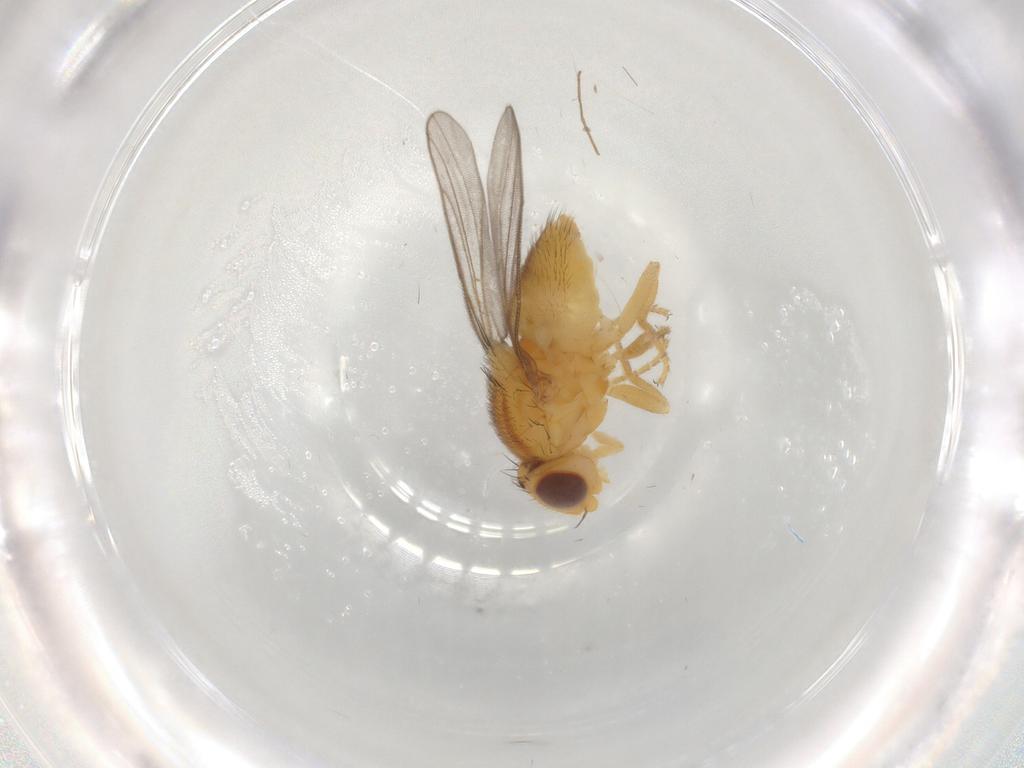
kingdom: Animalia
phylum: Arthropoda
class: Insecta
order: Diptera
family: Chloropidae
